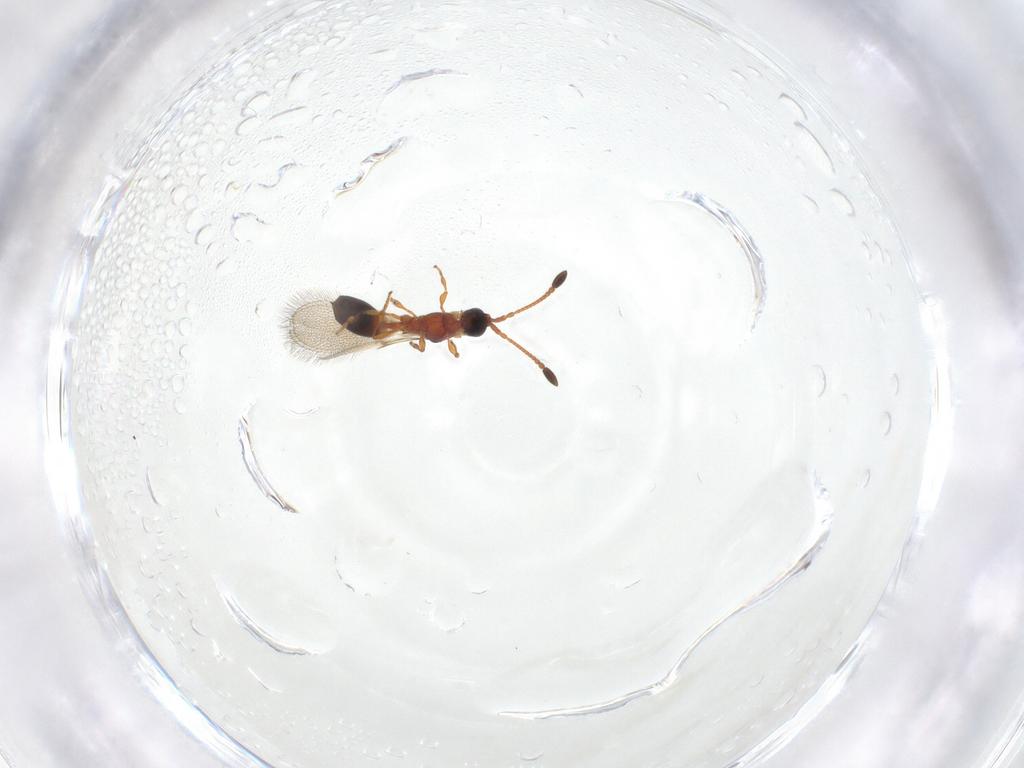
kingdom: Animalia
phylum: Arthropoda
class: Insecta
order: Hymenoptera
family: Diapriidae
